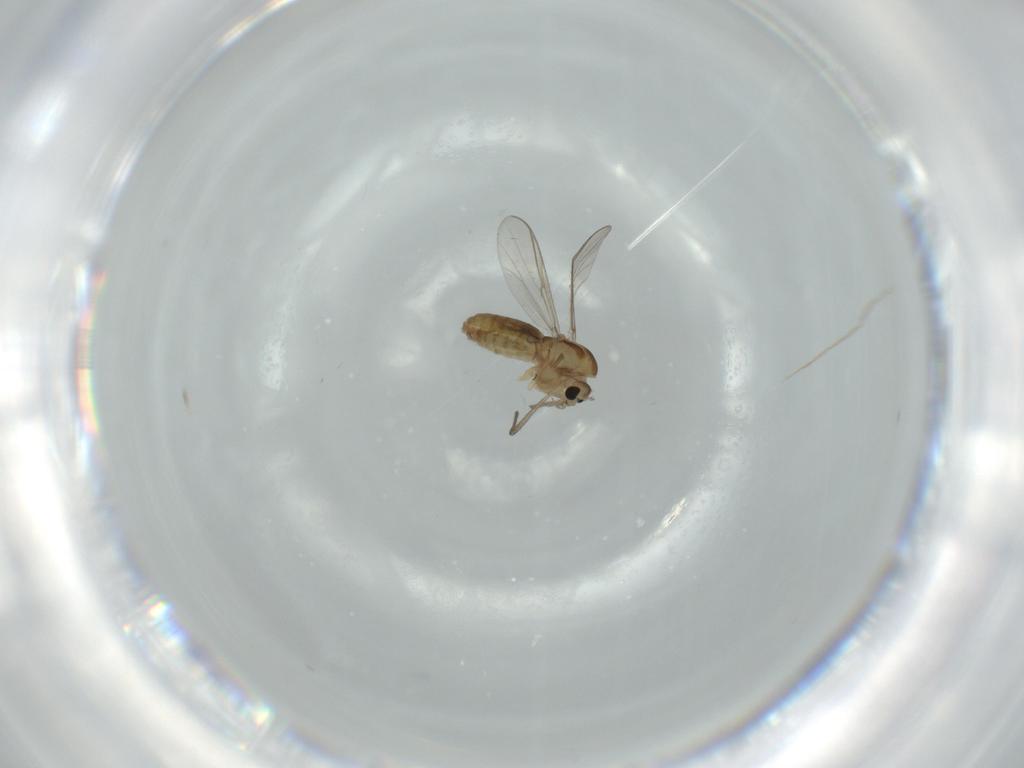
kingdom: Animalia
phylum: Arthropoda
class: Insecta
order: Diptera
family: Chironomidae
